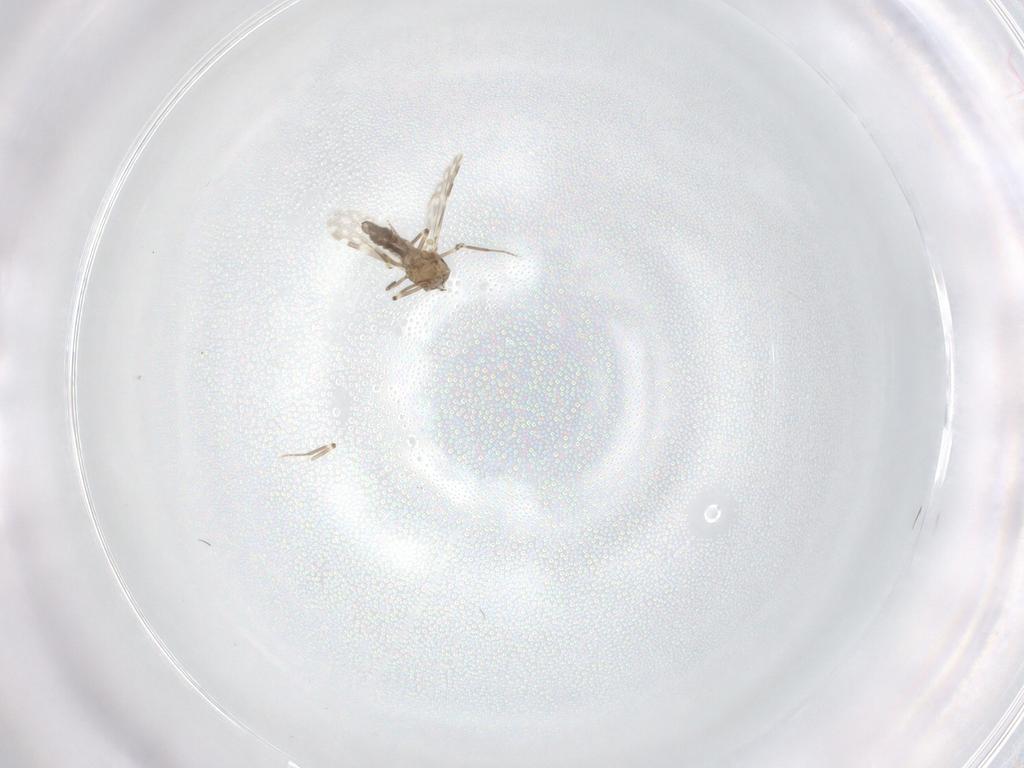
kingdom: Animalia
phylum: Arthropoda
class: Insecta
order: Diptera
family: Ceratopogonidae
